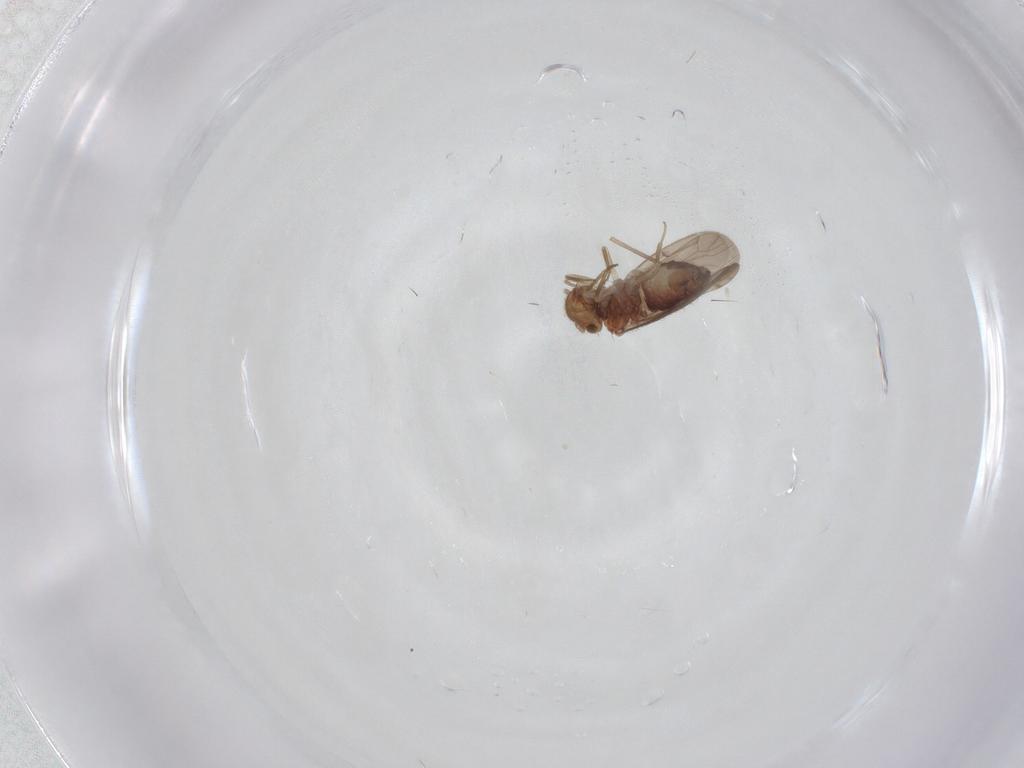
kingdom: Animalia
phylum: Arthropoda
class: Insecta
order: Psocodea
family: Ectopsocidae
